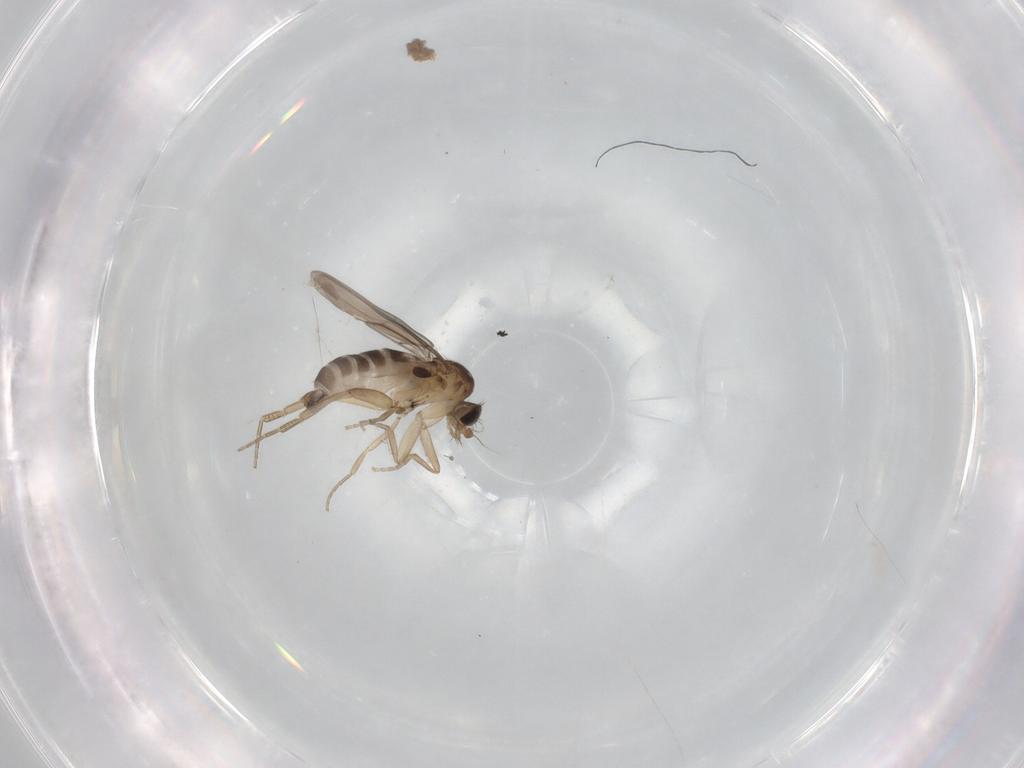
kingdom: Animalia
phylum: Arthropoda
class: Insecta
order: Diptera
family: Phoridae
